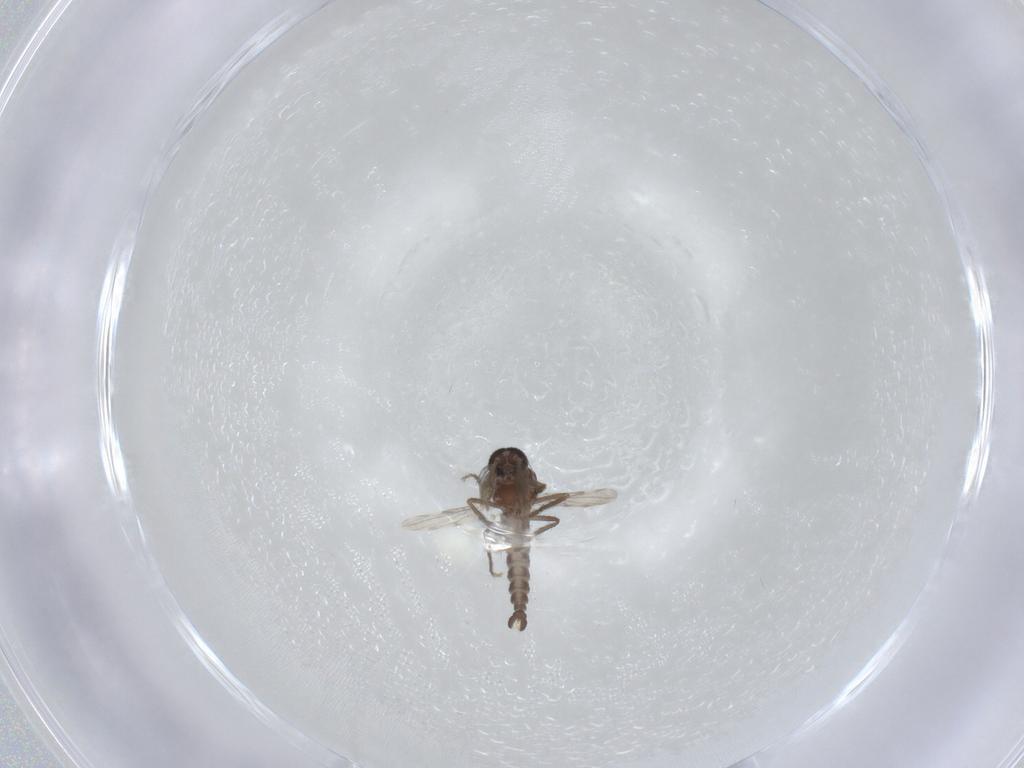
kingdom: Animalia
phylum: Arthropoda
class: Insecta
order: Diptera
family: Ceratopogonidae
